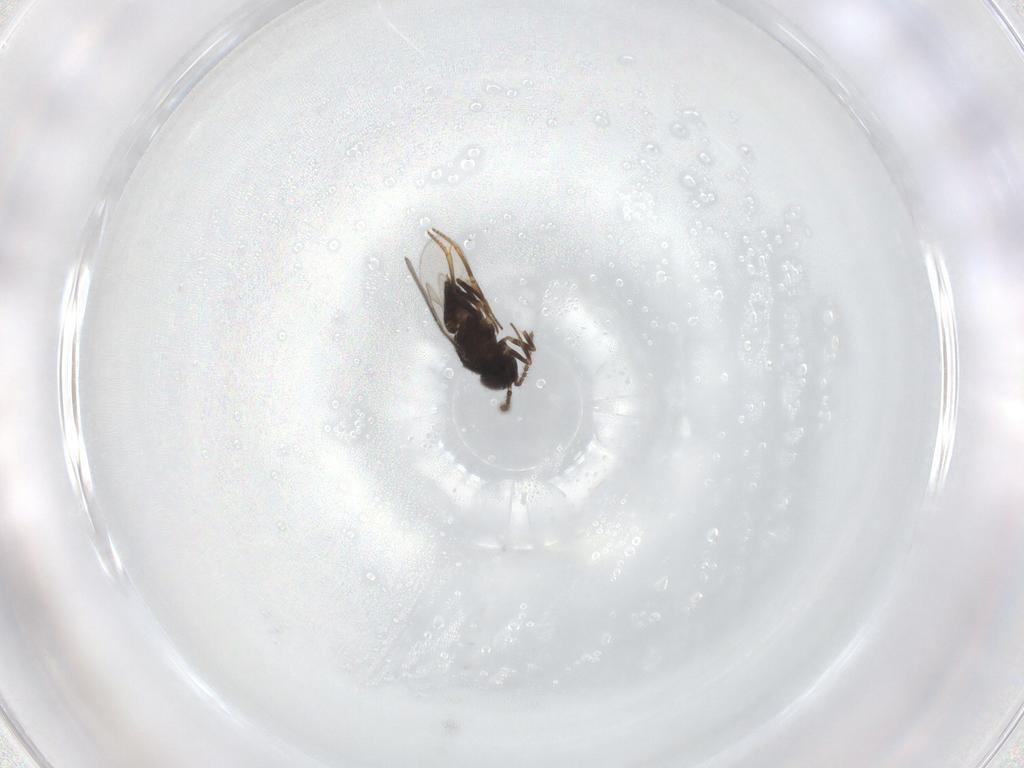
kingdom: Animalia
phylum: Arthropoda
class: Insecta
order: Hymenoptera
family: Encyrtidae
